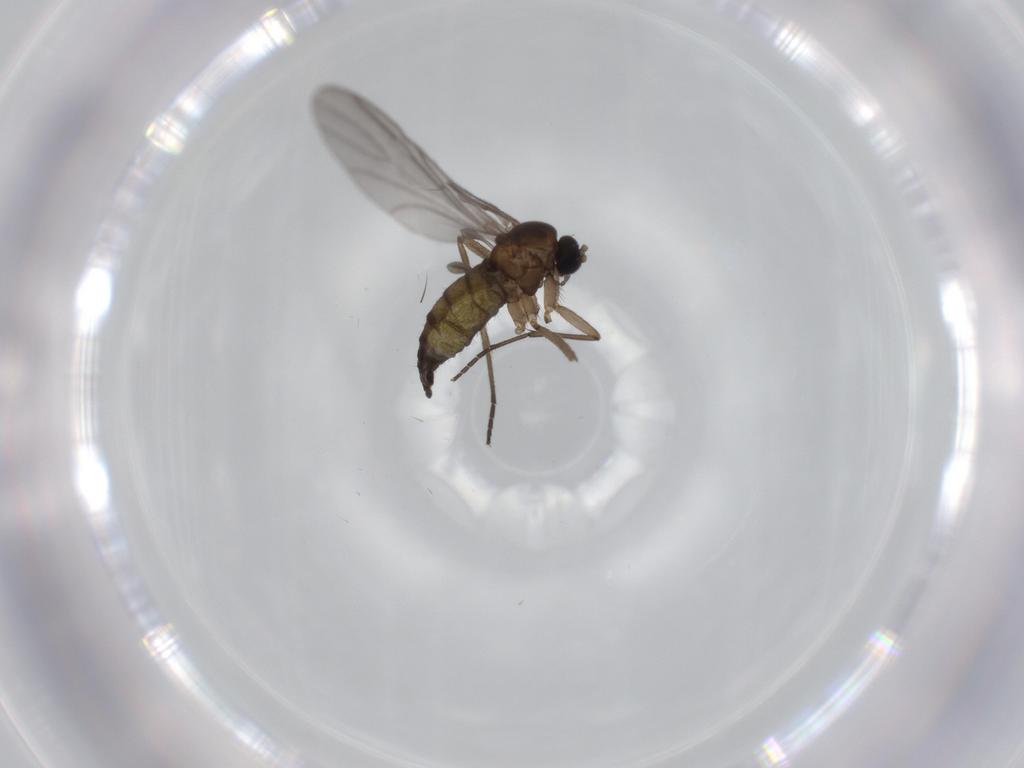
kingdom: Animalia
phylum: Arthropoda
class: Insecta
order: Diptera
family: Sciaridae
